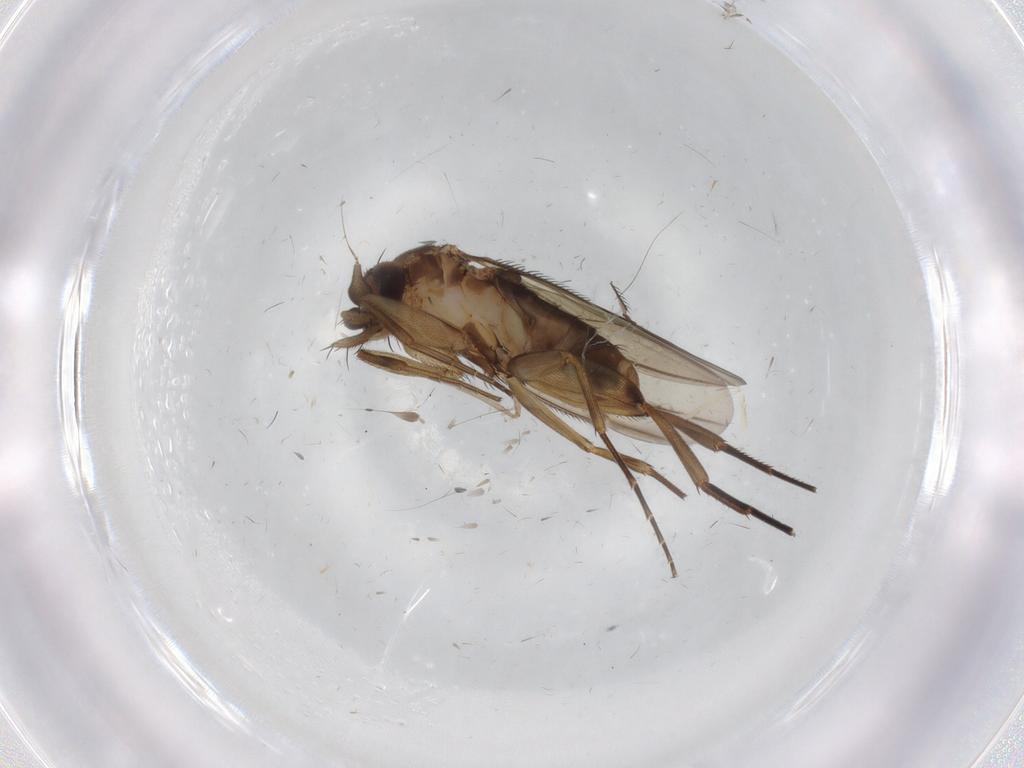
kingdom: Animalia
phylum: Arthropoda
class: Insecta
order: Diptera
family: Phoridae
